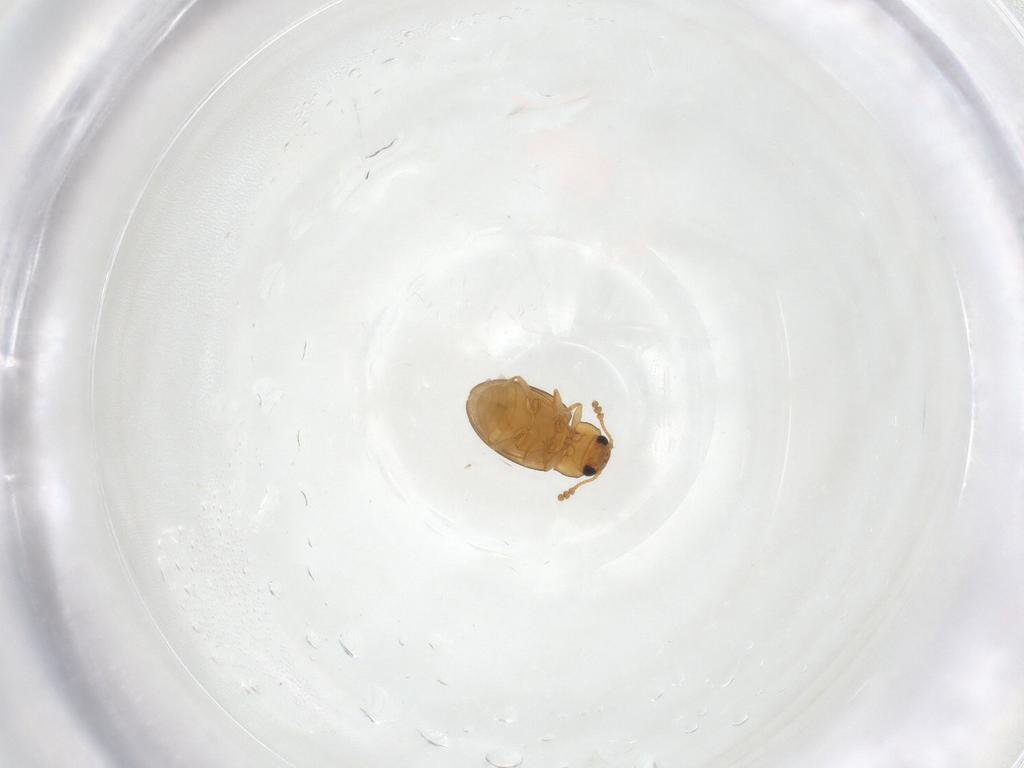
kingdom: Animalia
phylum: Arthropoda
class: Insecta
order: Coleoptera
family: Erotylidae
